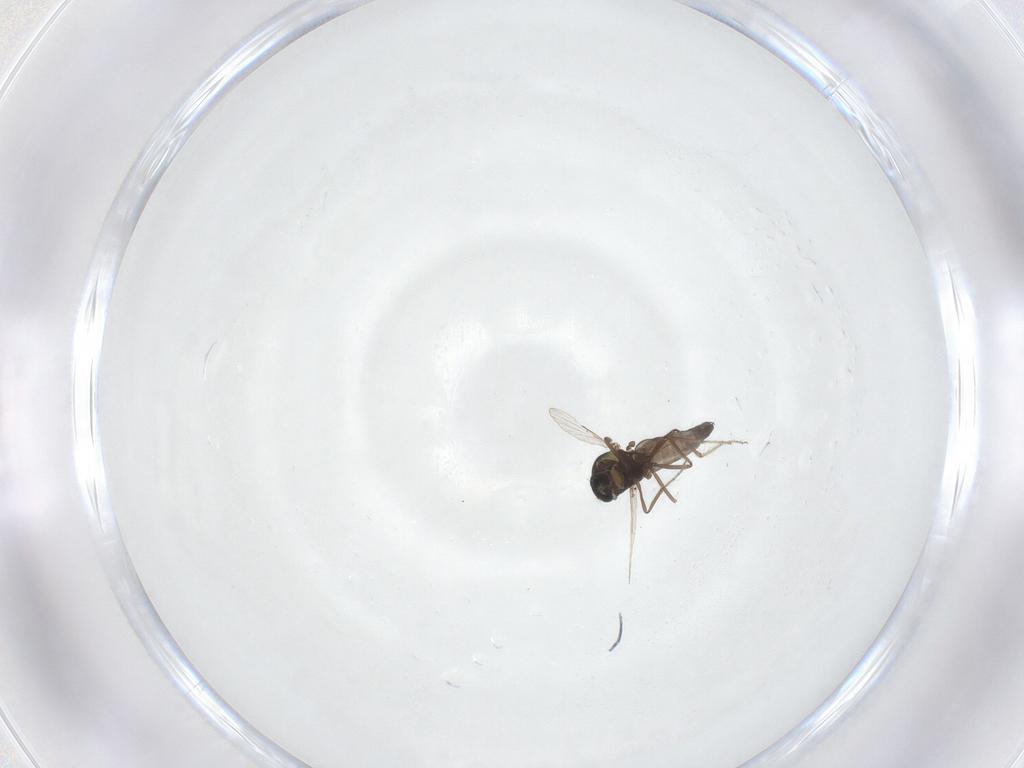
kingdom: Animalia
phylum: Arthropoda
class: Insecta
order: Diptera
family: Ceratopogonidae
